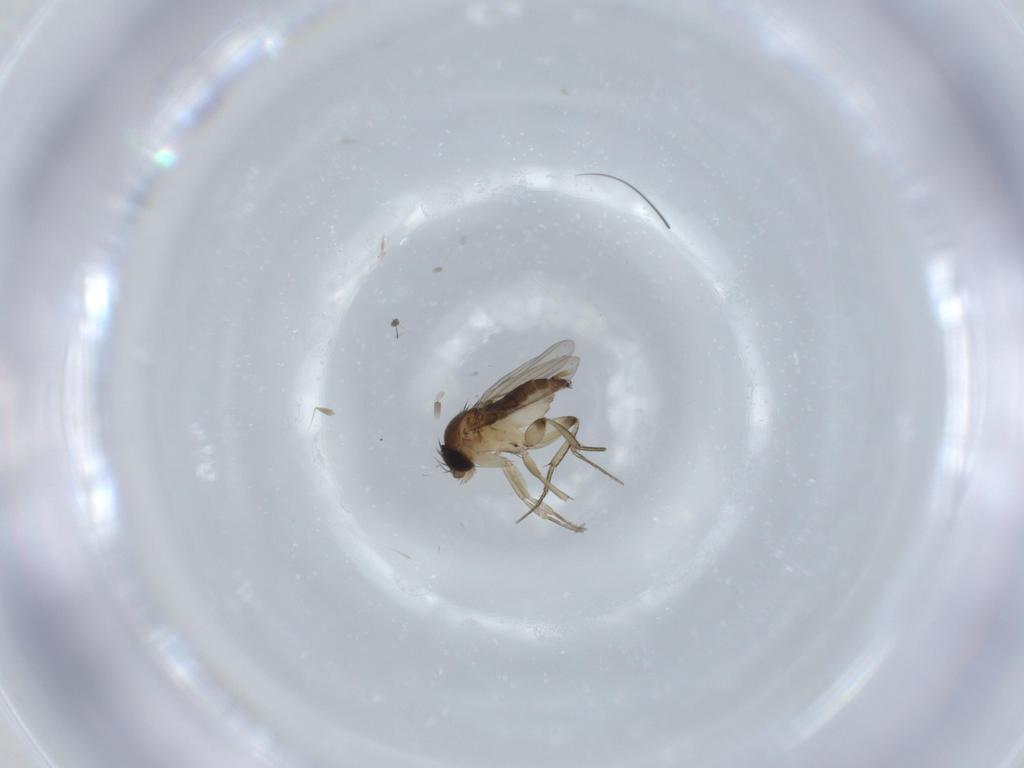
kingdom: Animalia
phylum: Arthropoda
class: Insecta
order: Diptera
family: Phoridae
